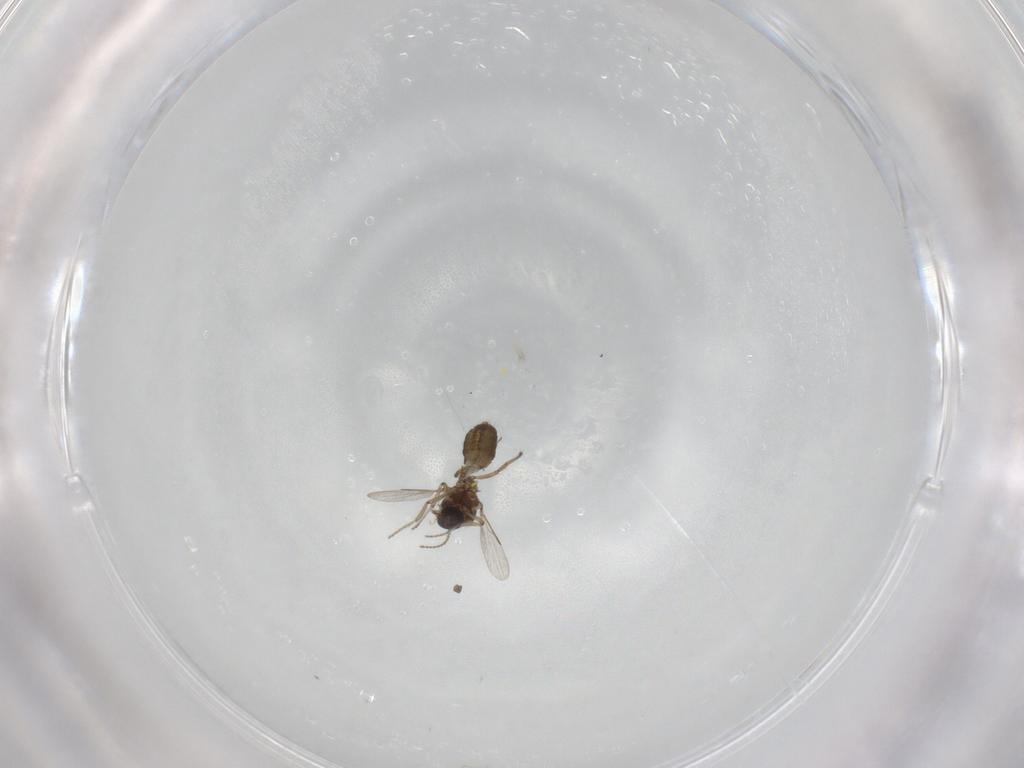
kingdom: Animalia
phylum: Arthropoda
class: Insecta
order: Diptera
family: Ceratopogonidae
